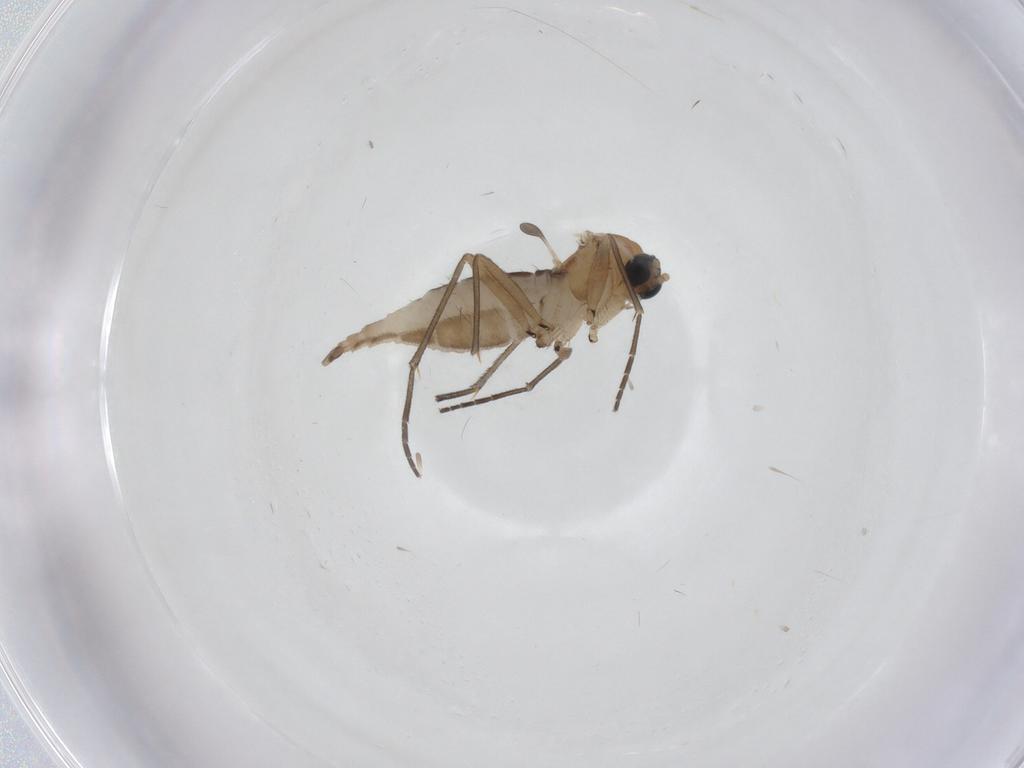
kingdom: Animalia
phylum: Arthropoda
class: Insecta
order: Diptera
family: Sciaridae
